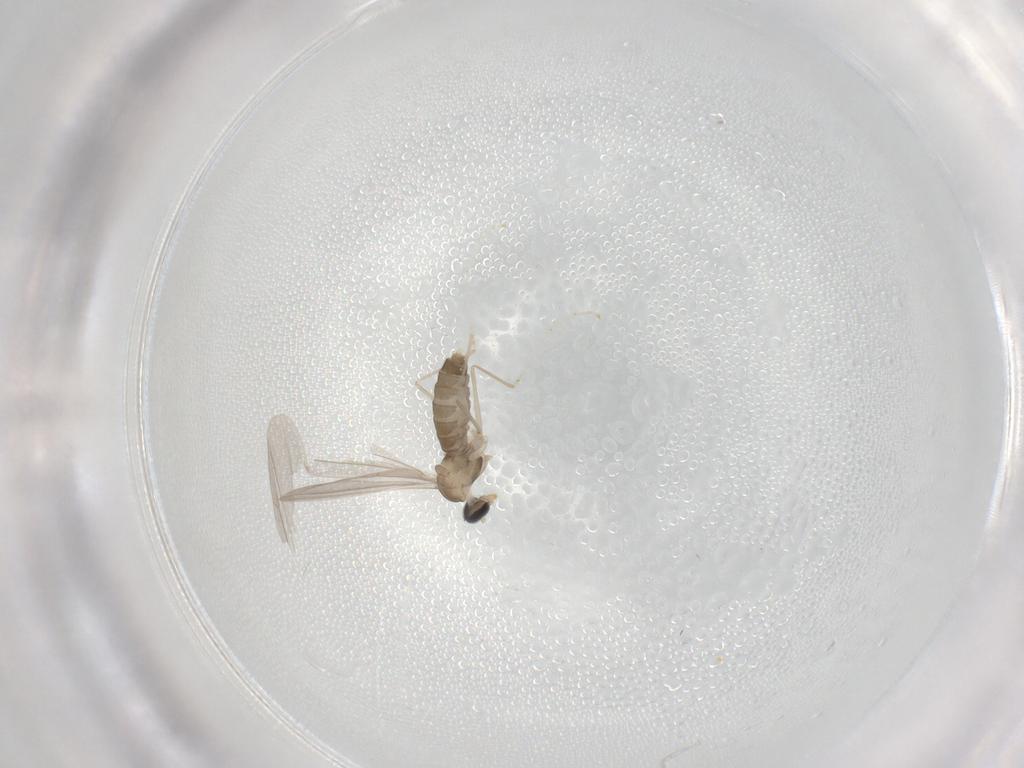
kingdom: Animalia
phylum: Arthropoda
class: Insecta
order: Diptera
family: Cecidomyiidae
